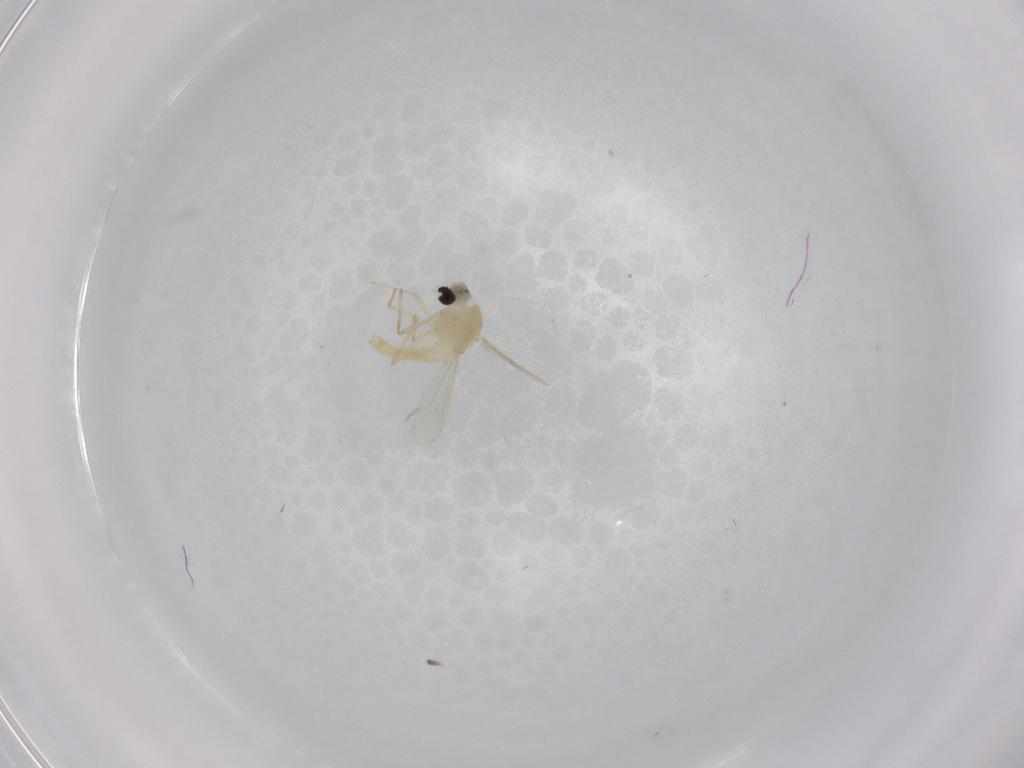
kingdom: Animalia
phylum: Arthropoda
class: Insecta
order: Diptera
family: Chironomidae
